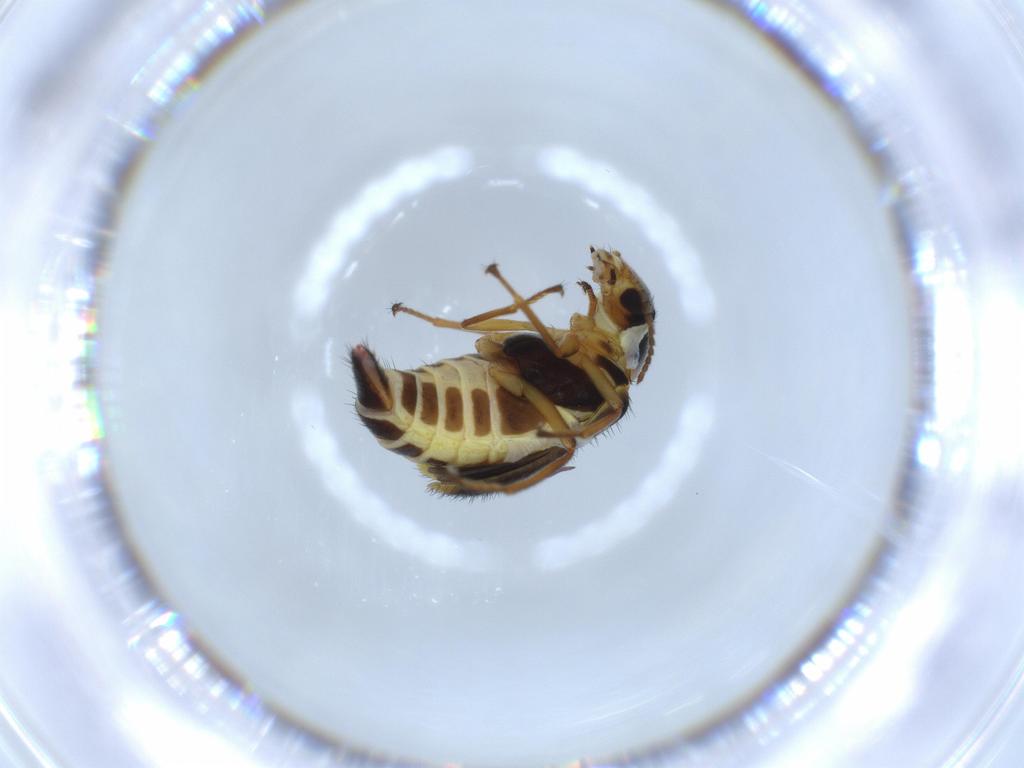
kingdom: Animalia
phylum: Arthropoda
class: Insecta
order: Coleoptera
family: Melyridae
